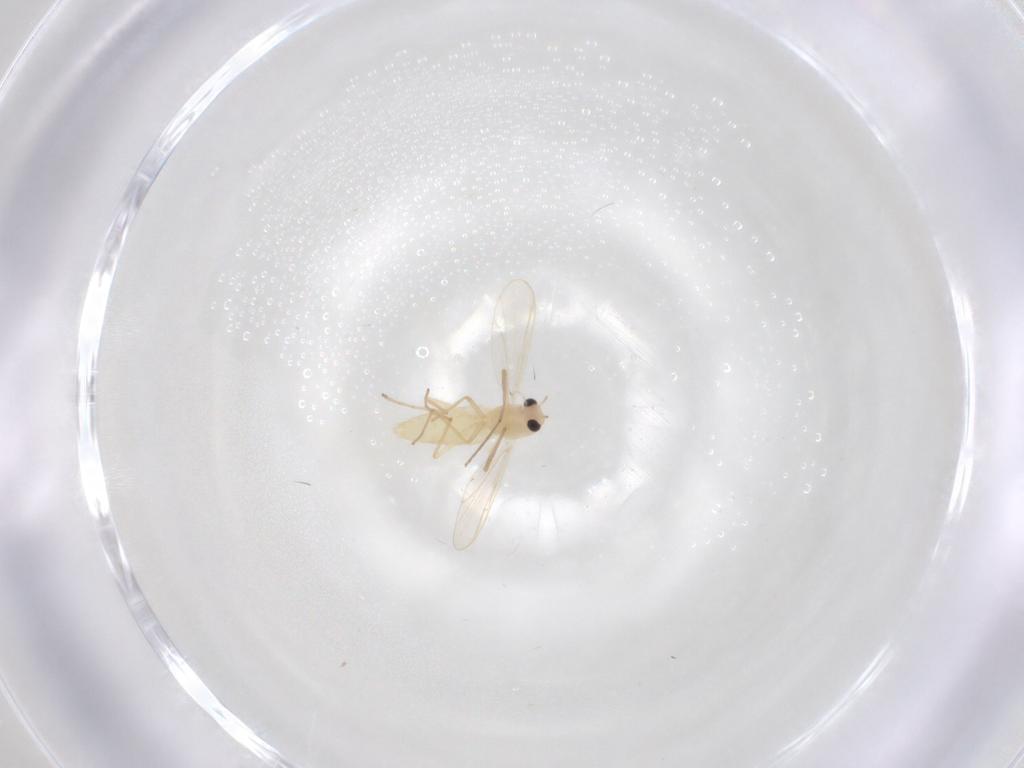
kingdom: Animalia
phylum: Arthropoda
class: Insecta
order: Diptera
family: Chironomidae
